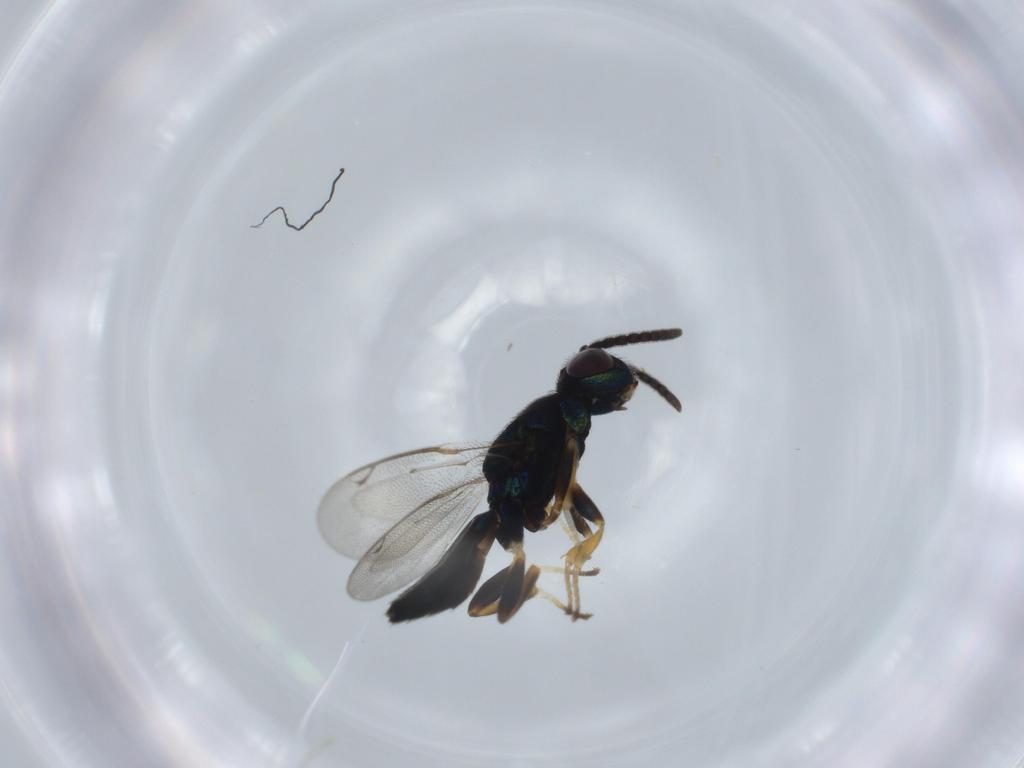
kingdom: Animalia
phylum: Arthropoda
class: Insecta
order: Hymenoptera
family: Eupelmidae
